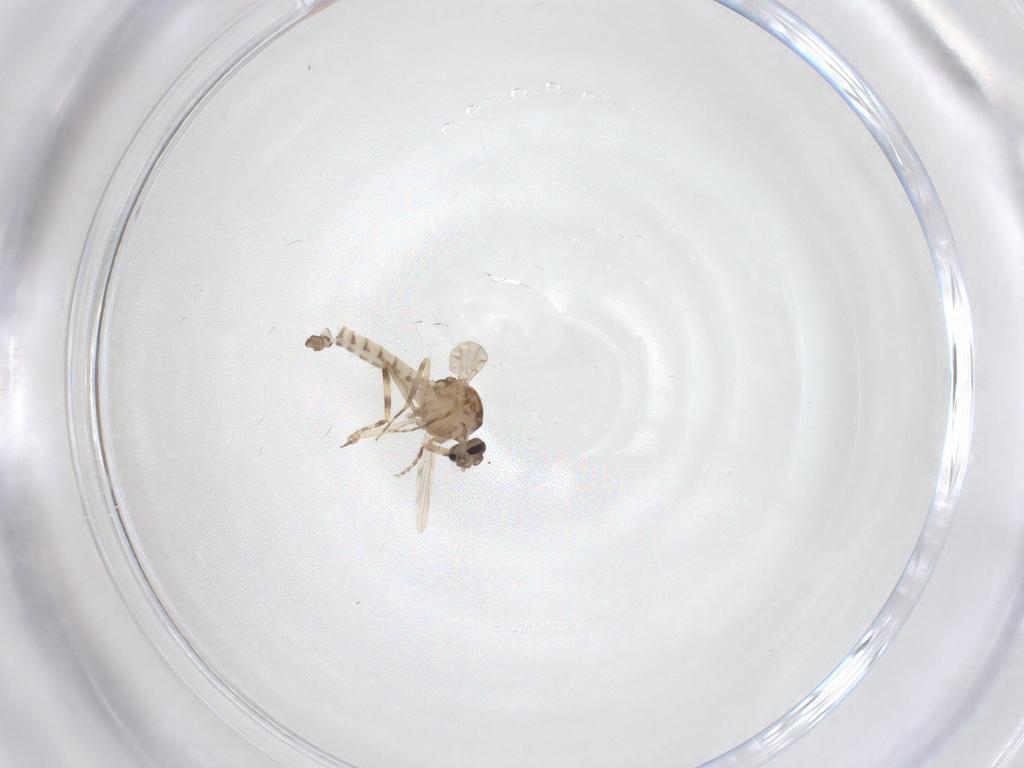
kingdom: Animalia
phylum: Arthropoda
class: Insecta
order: Diptera
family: Ceratopogonidae
